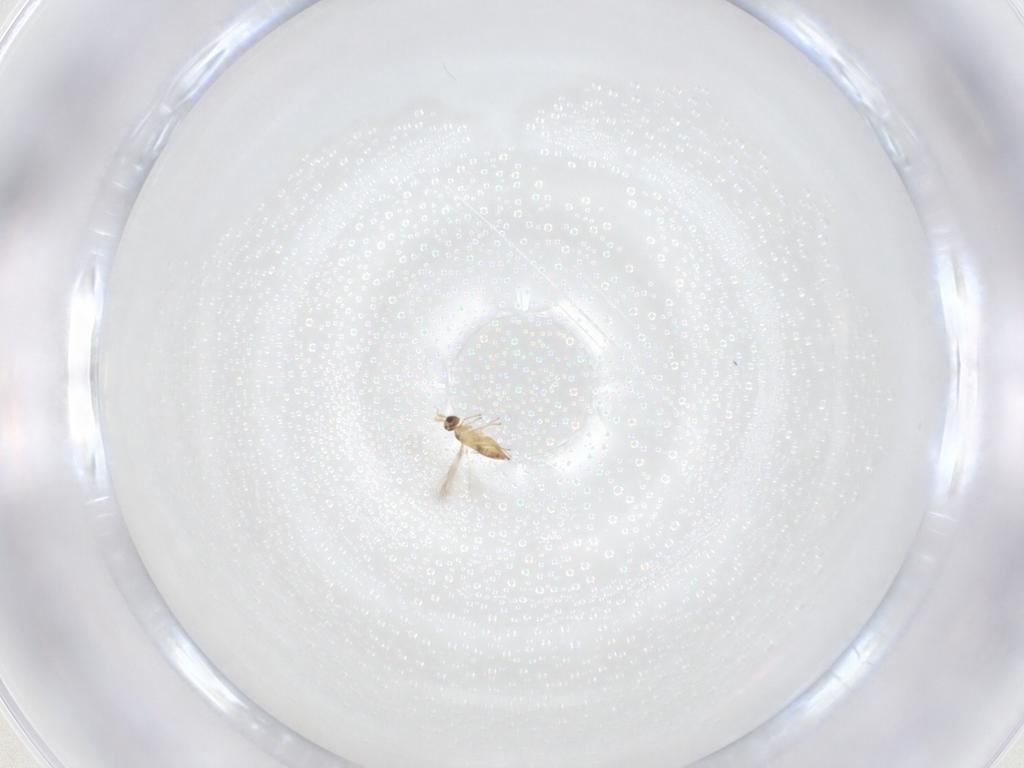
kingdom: Animalia
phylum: Arthropoda
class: Insecta
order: Hymenoptera
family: Mymaridae
